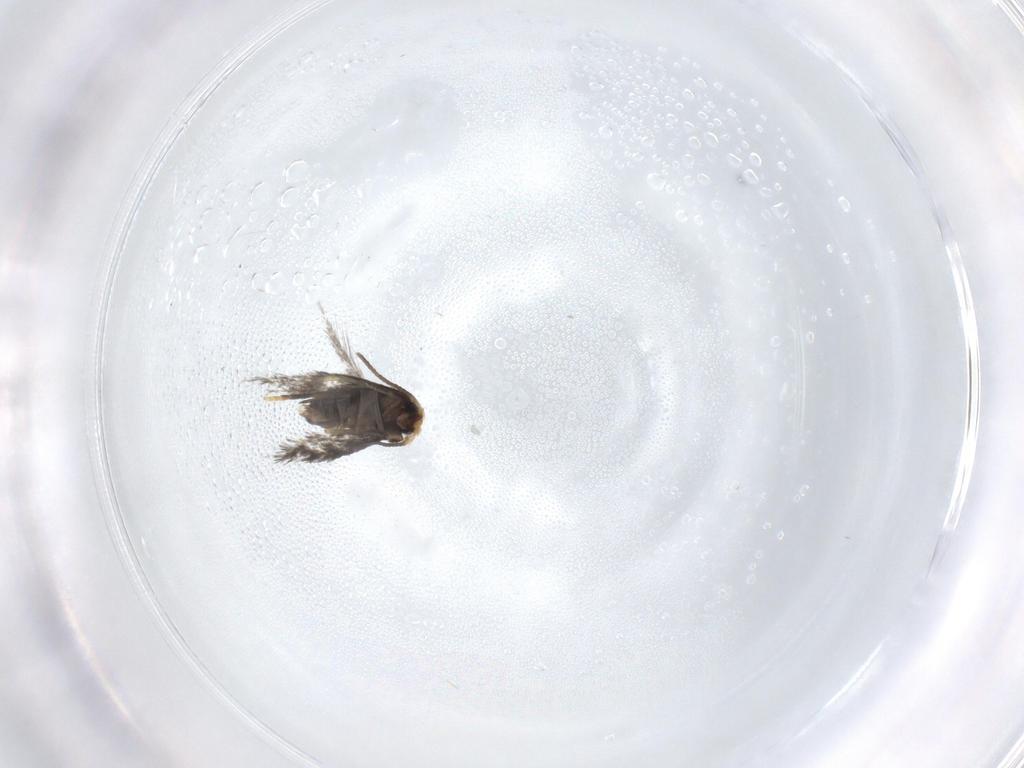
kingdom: Animalia
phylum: Arthropoda
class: Insecta
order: Lepidoptera
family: Nepticulidae
